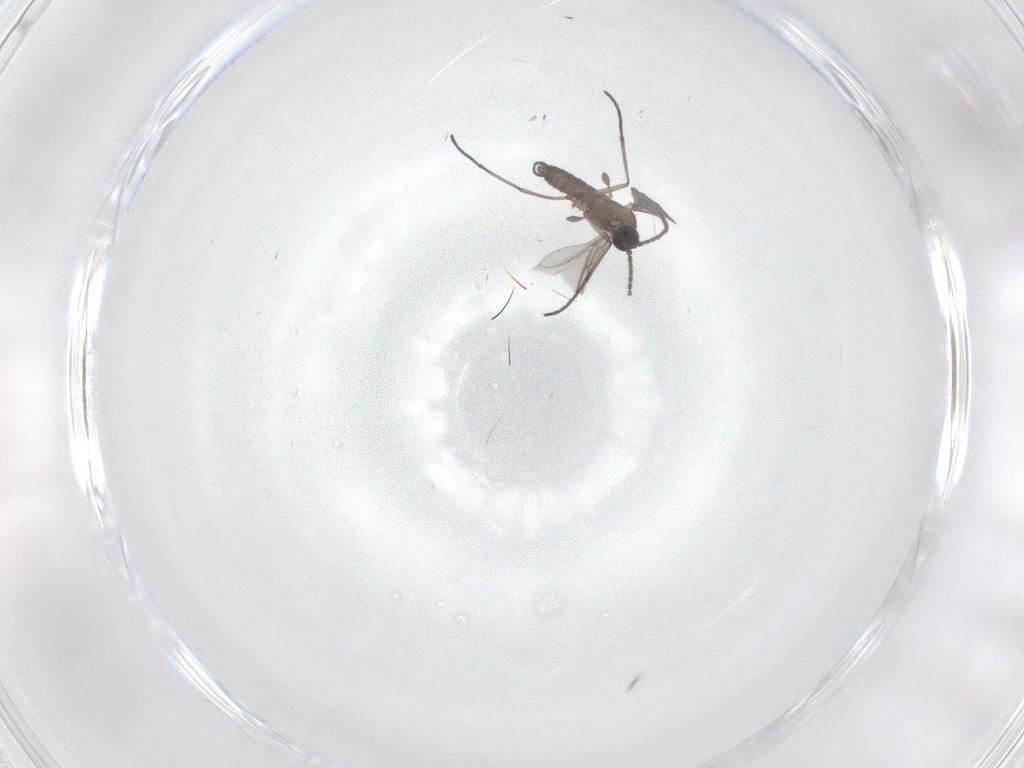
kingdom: Animalia
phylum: Arthropoda
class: Insecta
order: Diptera
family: Sciaridae
